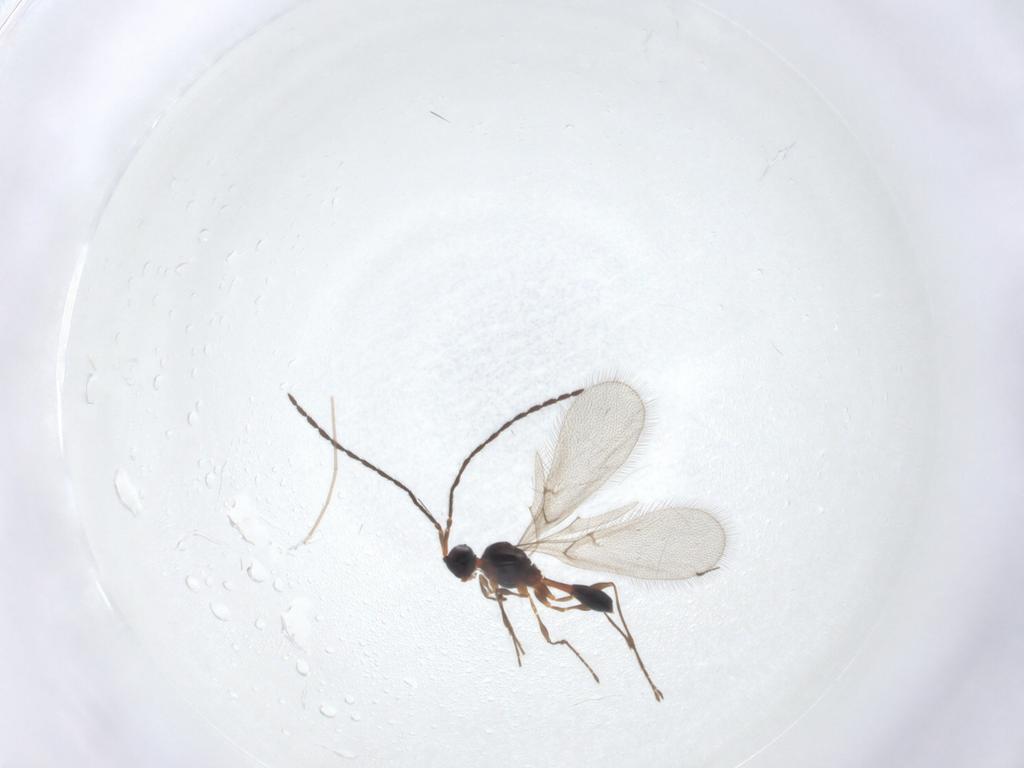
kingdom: Animalia
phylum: Arthropoda
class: Insecta
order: Hymenoptera
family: Diapriidae
